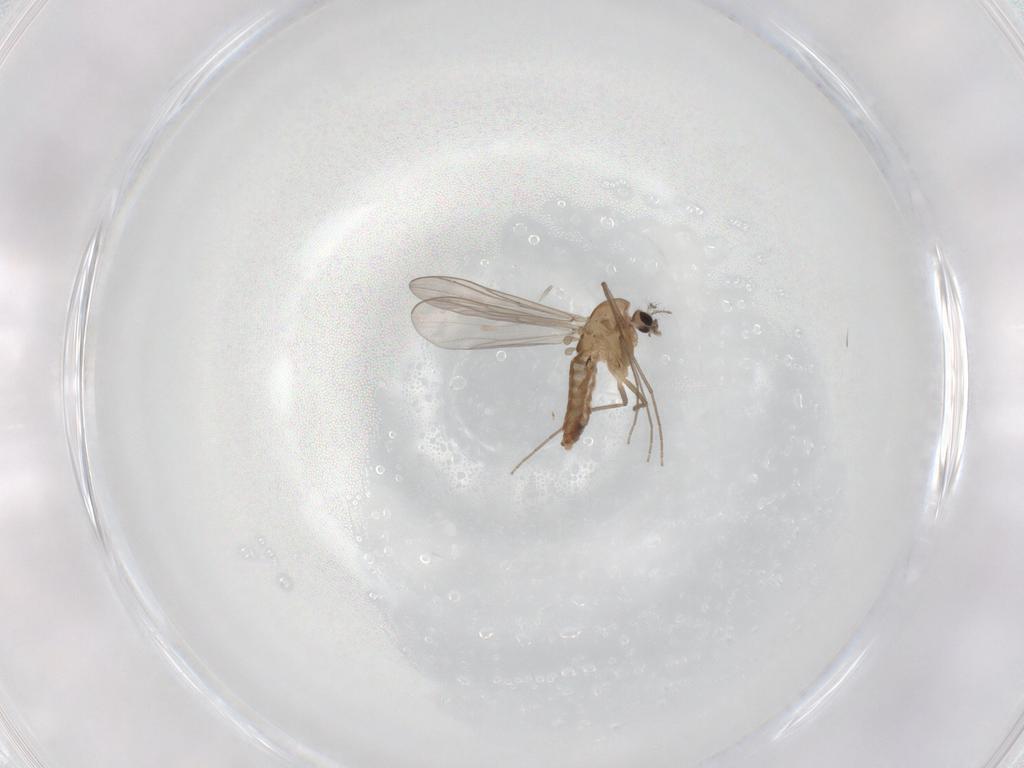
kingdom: Animalia
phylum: Arthropoda
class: Insecta
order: Diptera
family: Chironomidae
